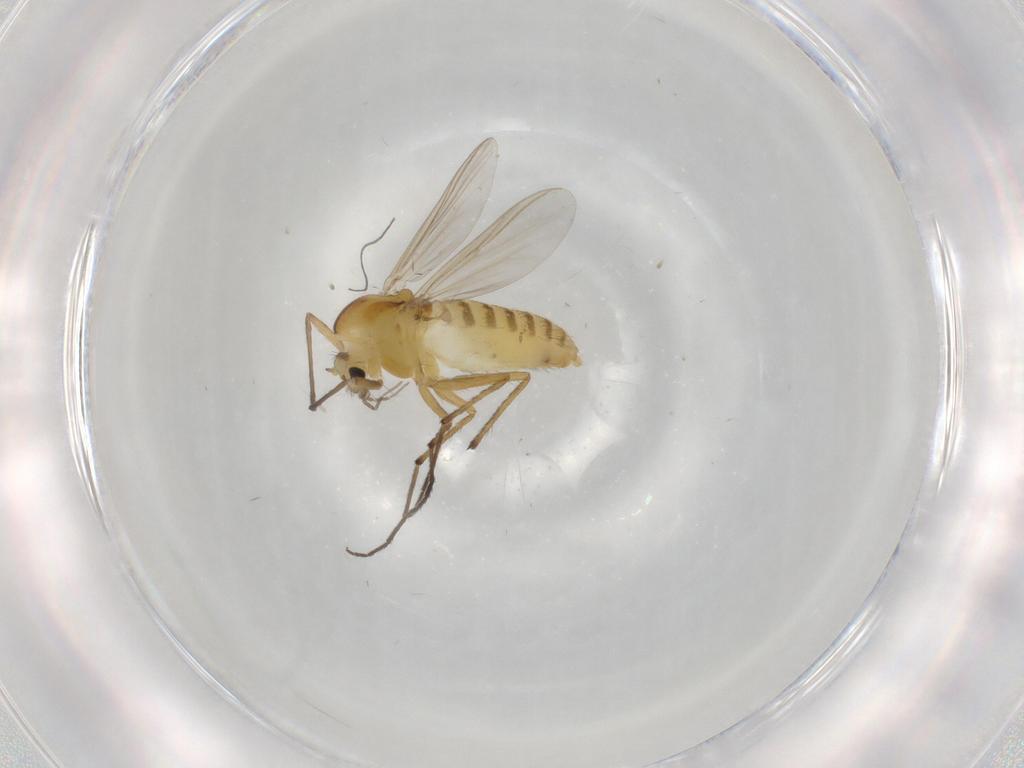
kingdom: Animalia
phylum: Arthropoda
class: Insecta
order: Diptera
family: Chironomidae
